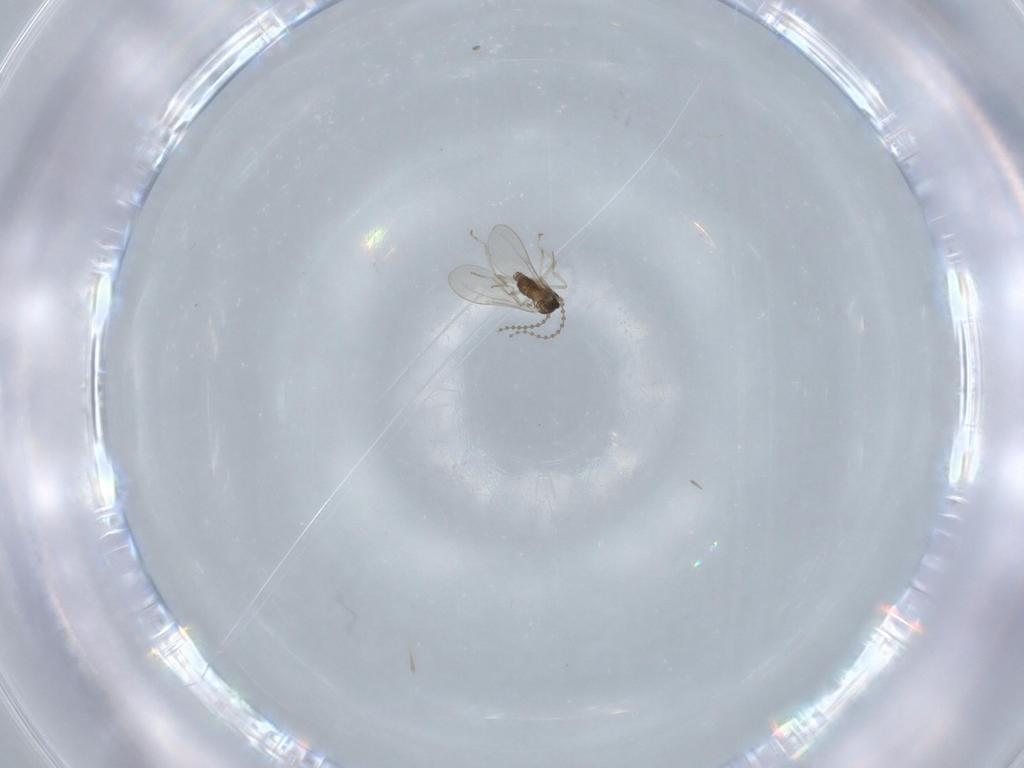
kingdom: Animalia
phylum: Arthropoda
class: Insecta
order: Diptera
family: Cecidomyiidae
